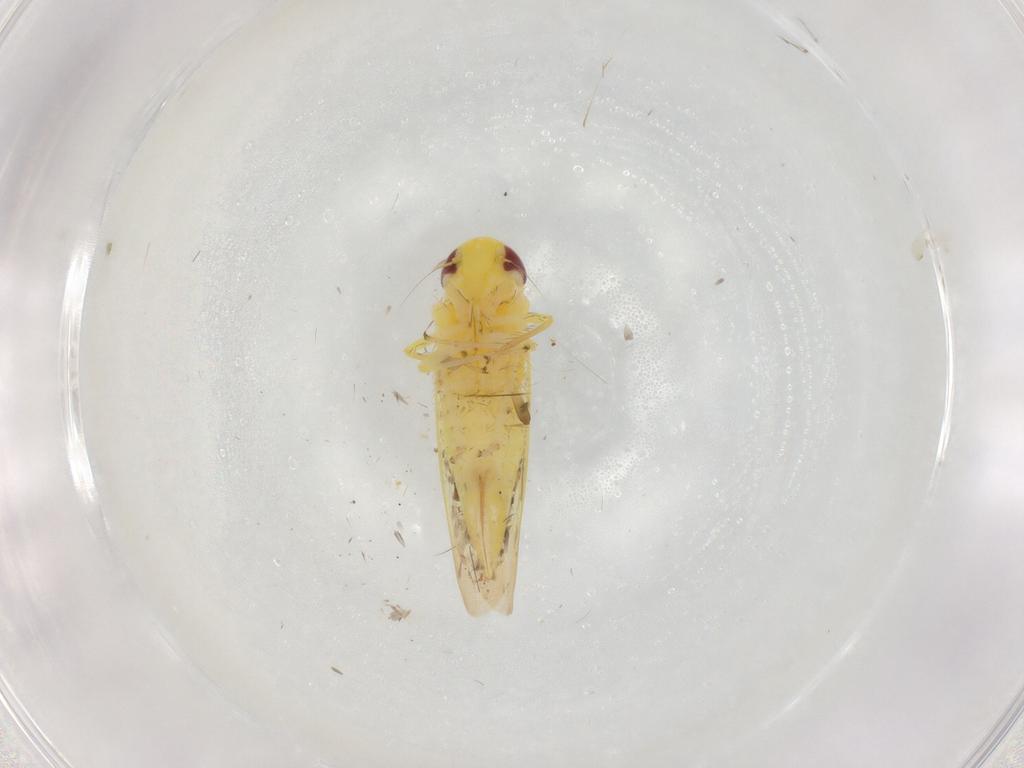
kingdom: Animalia
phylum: Arthropoda
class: Insecta
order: Hemiptera
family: Cicadellidae
